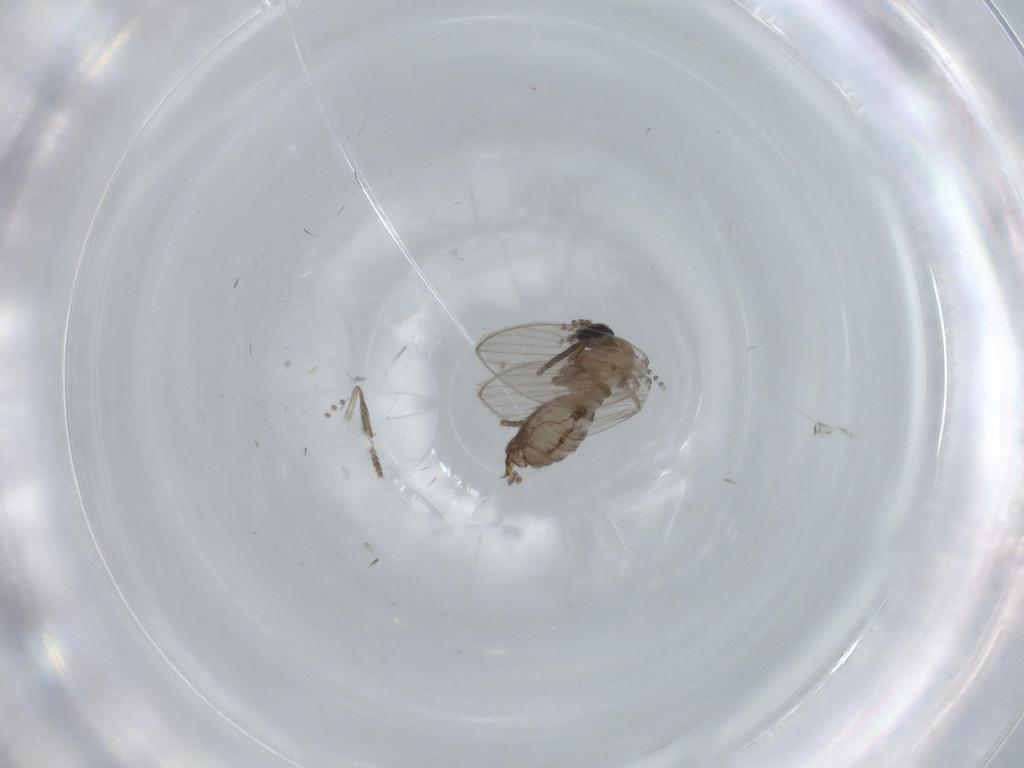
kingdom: Animalia
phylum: Arthropoda
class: Insecta
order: Diptera
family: Psychodidae
